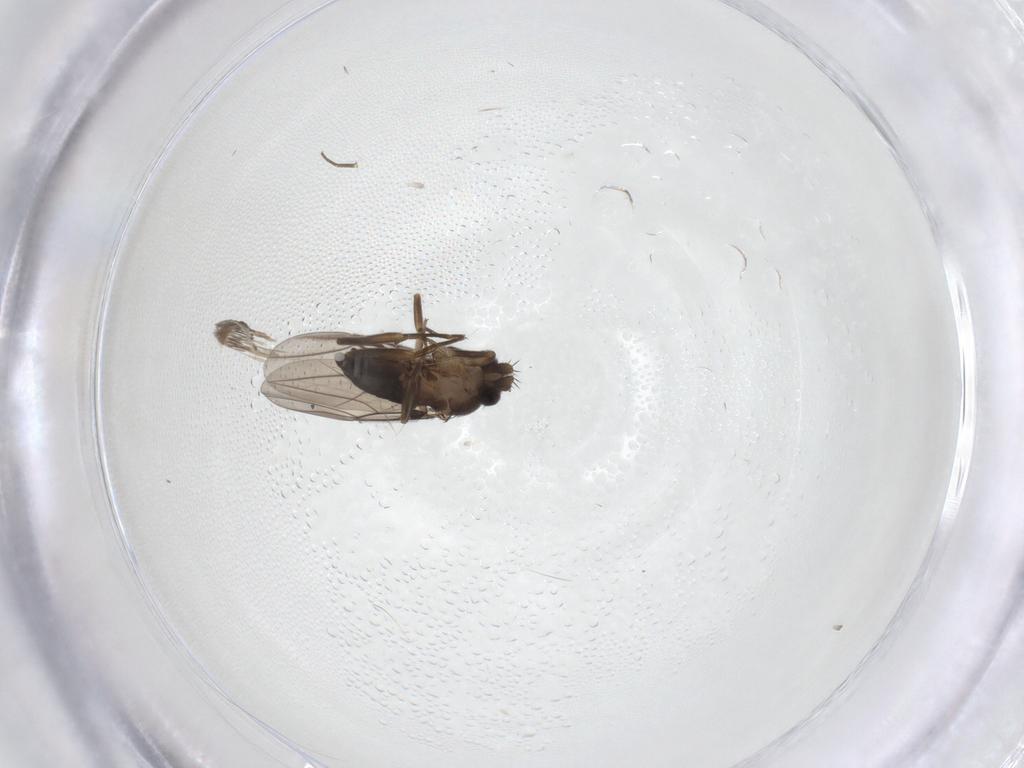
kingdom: Animalia
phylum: Arthropoda
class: Insecta
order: Diptera
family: Phoridae
